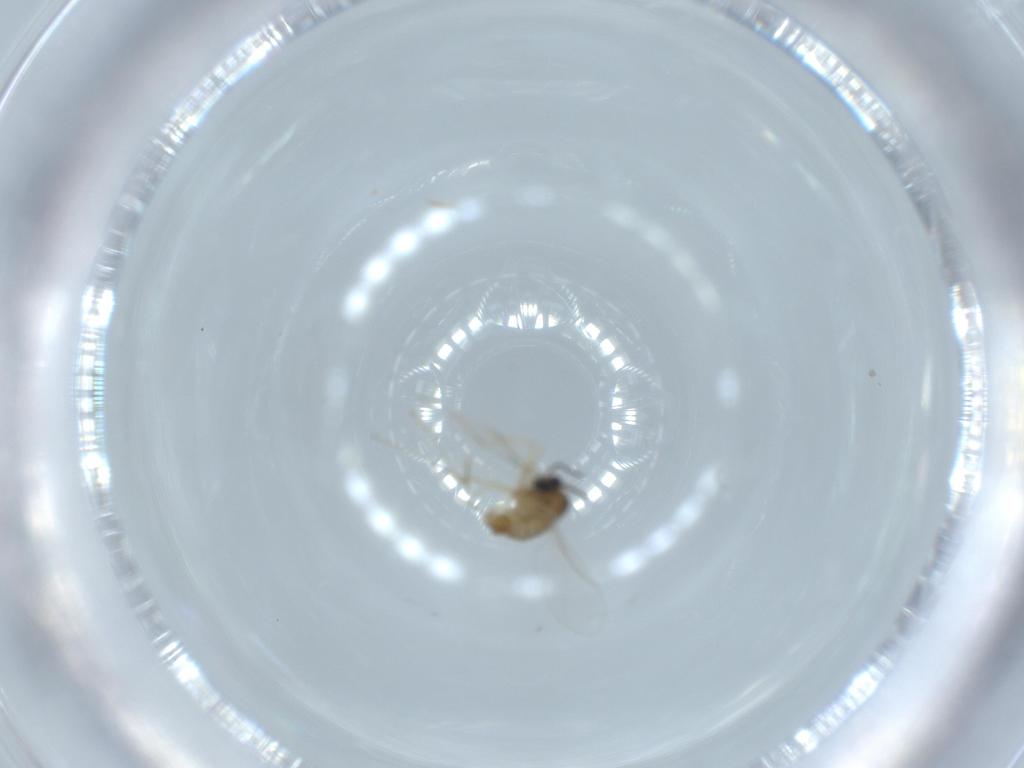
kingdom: Animalia
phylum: Arthropoda
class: Insecta
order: Diptera
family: Cecidomyiidae
